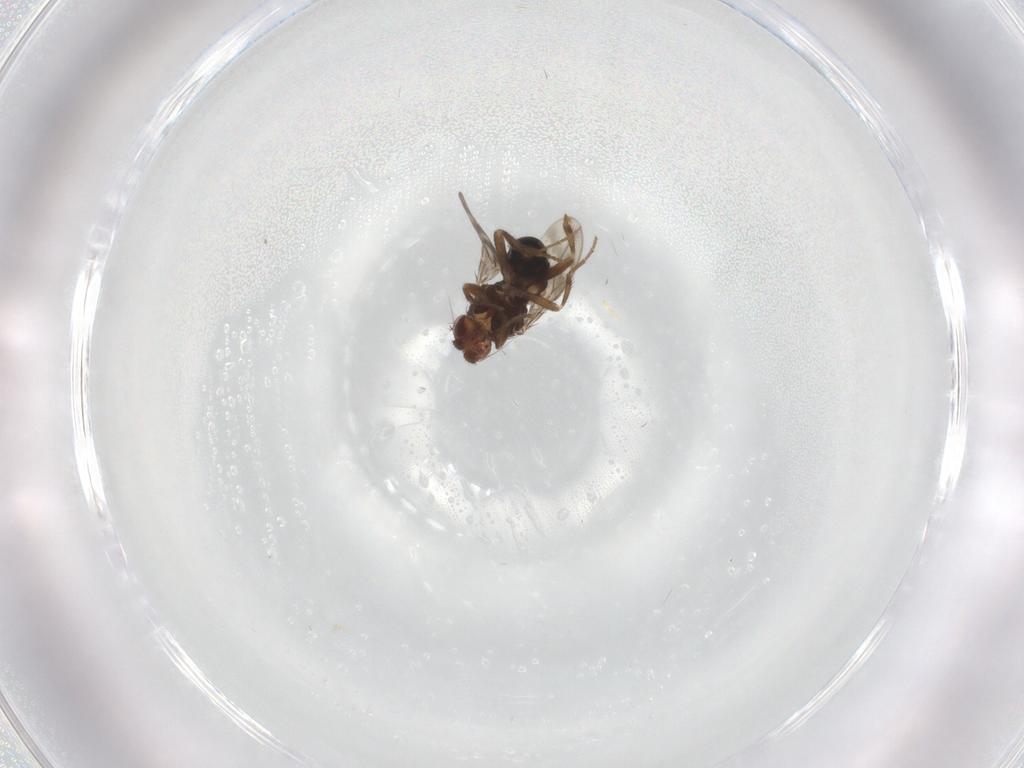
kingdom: Animalia
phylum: Arthropoda
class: Insecta
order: Diptera
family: Sphaeroceridae
